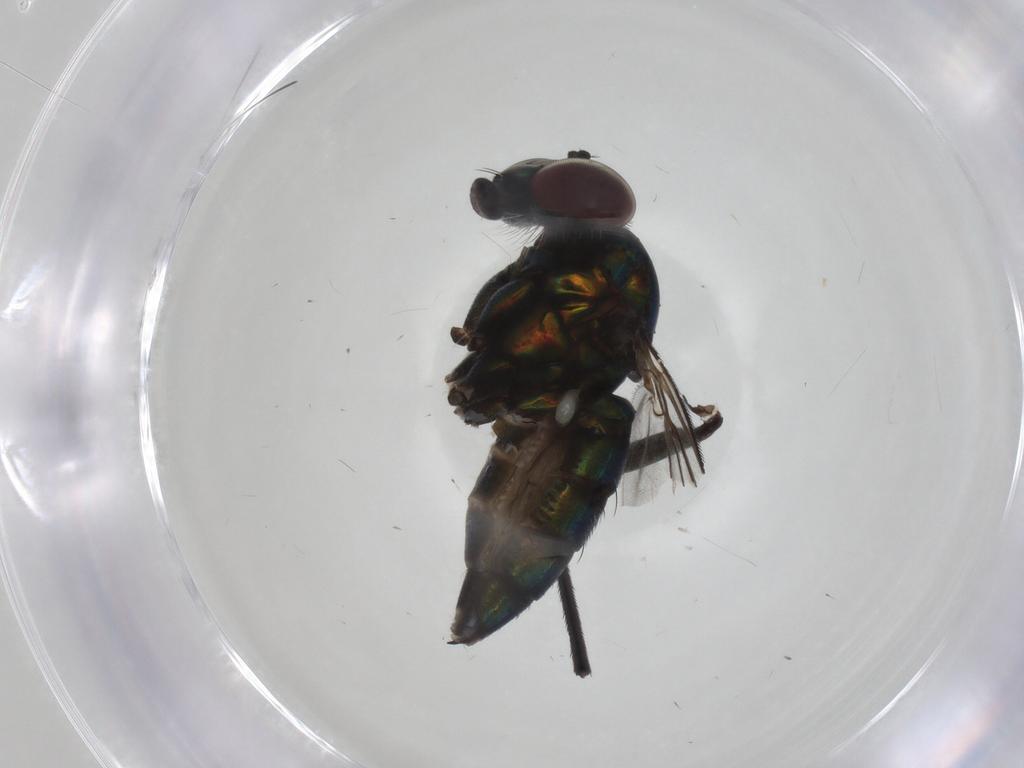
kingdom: Animalia
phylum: Arthropoda
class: Insecta
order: Diptera
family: Dolichopodidae
